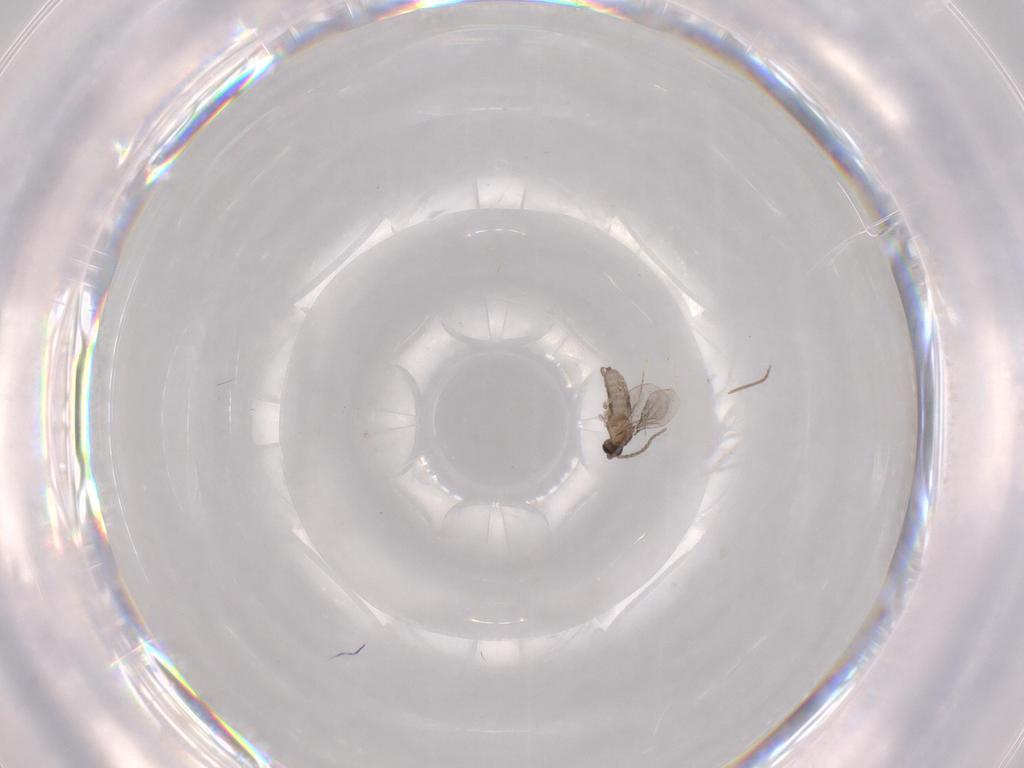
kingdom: Animalia
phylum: Arthropoda
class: Insecta
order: Diptera
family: Cecidomyiidae
